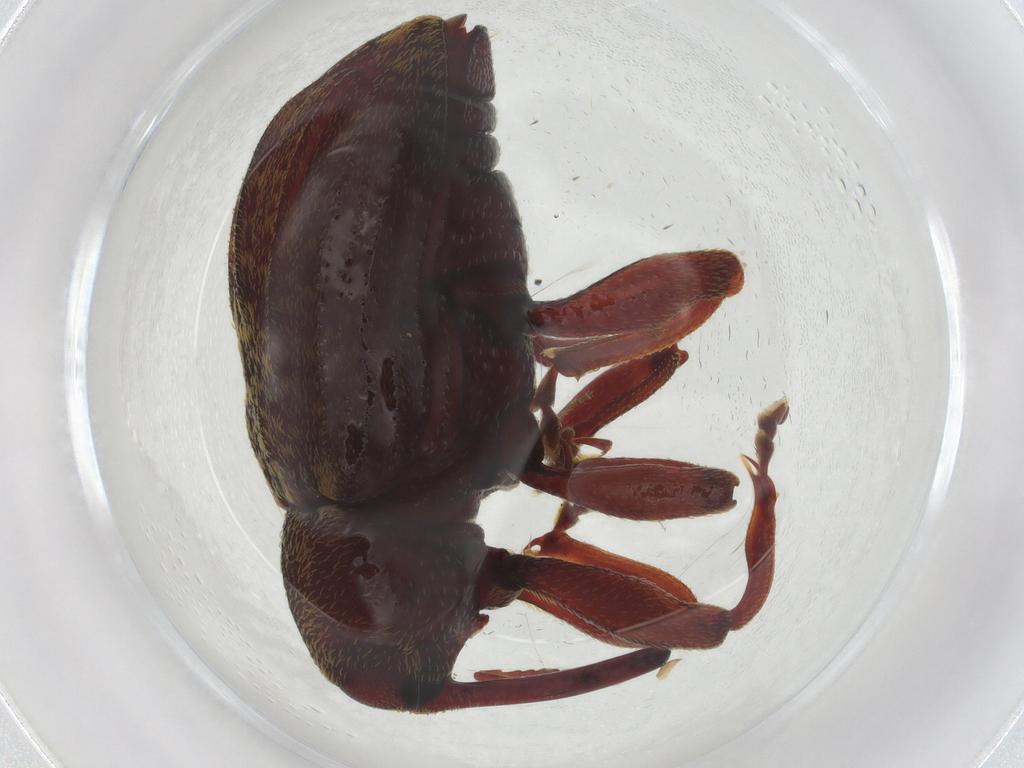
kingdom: Animalia
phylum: Arthropoda
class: Insecta
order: Coleoptera
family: Curculionidae
